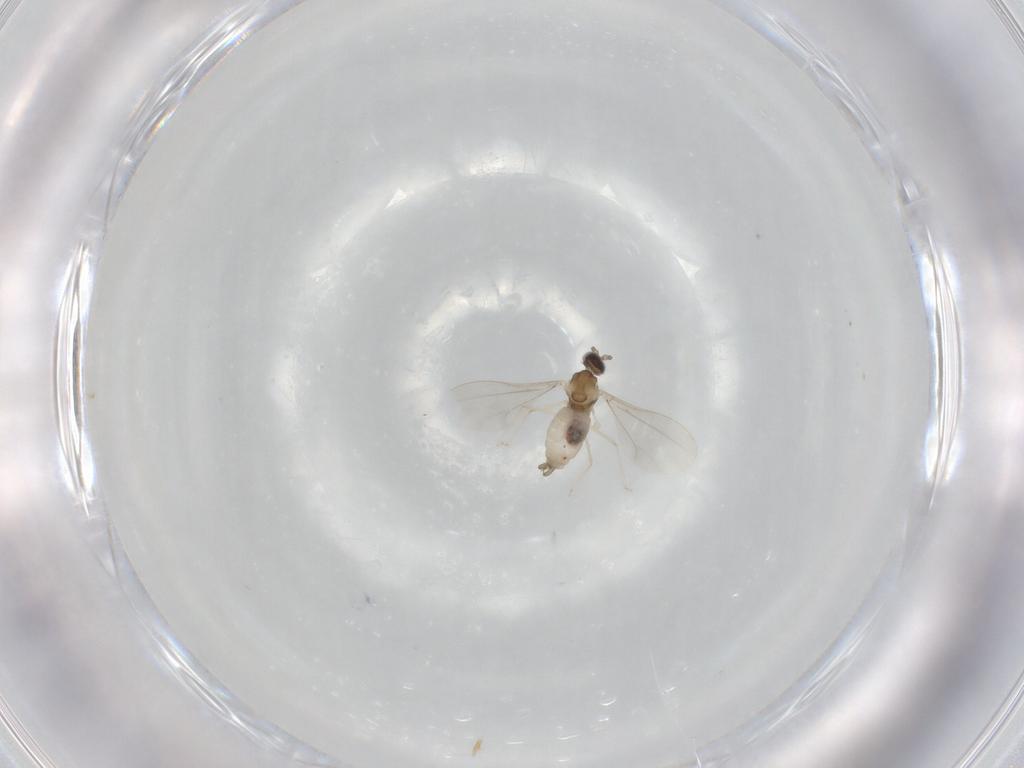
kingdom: Animalia
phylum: Arthropoda
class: Insecta
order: Diptera
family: Cecidomyiidae
